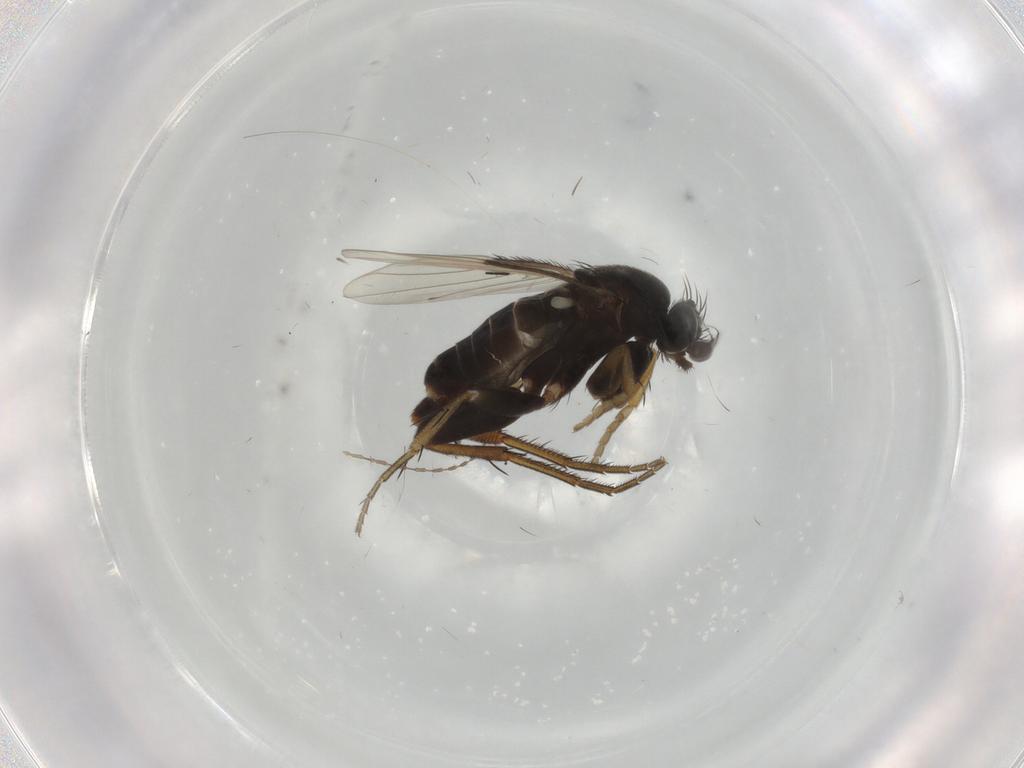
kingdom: Animalia
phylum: Arthropoda
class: Insecta
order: Diptera
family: Phoridae
